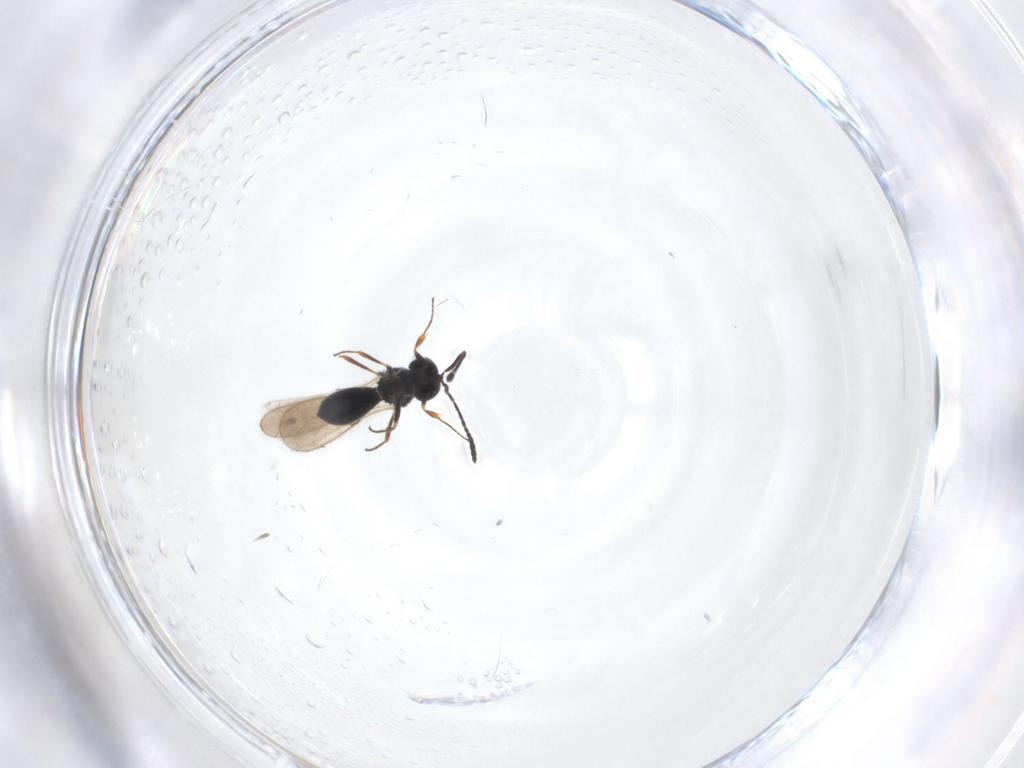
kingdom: Animalia
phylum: Arthropoda
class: Insecta
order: Hymenoptera
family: Scelionidae
